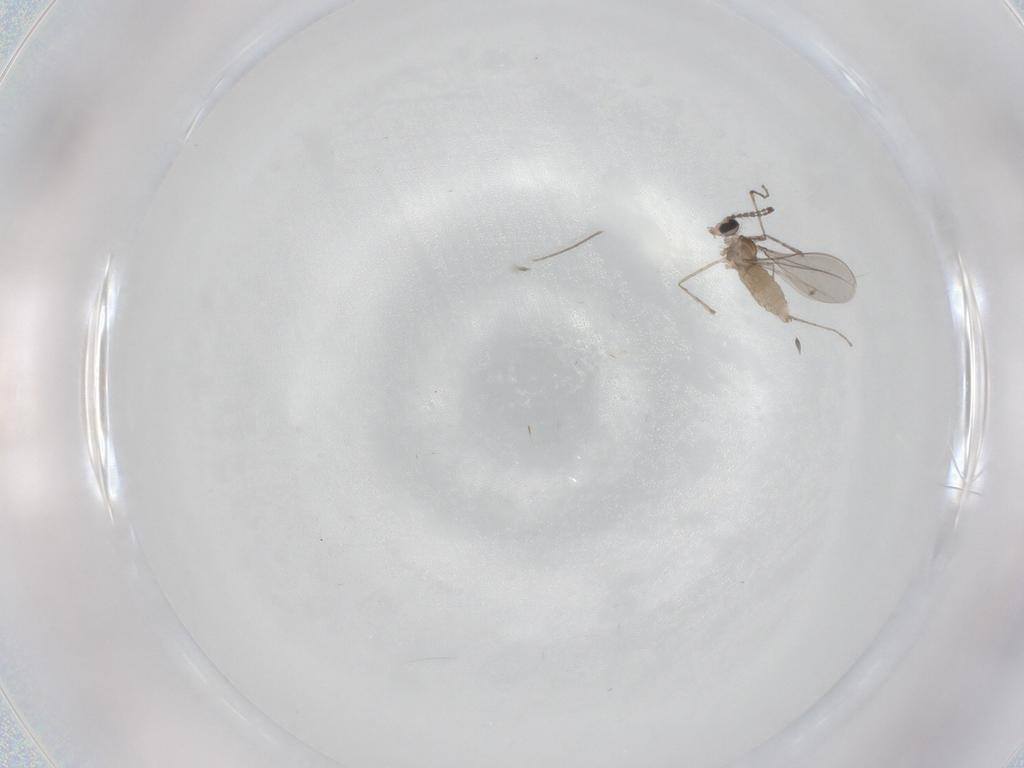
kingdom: Animalia
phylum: Arthropoda
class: Insecta
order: Diptera
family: Cecidomyiidae
